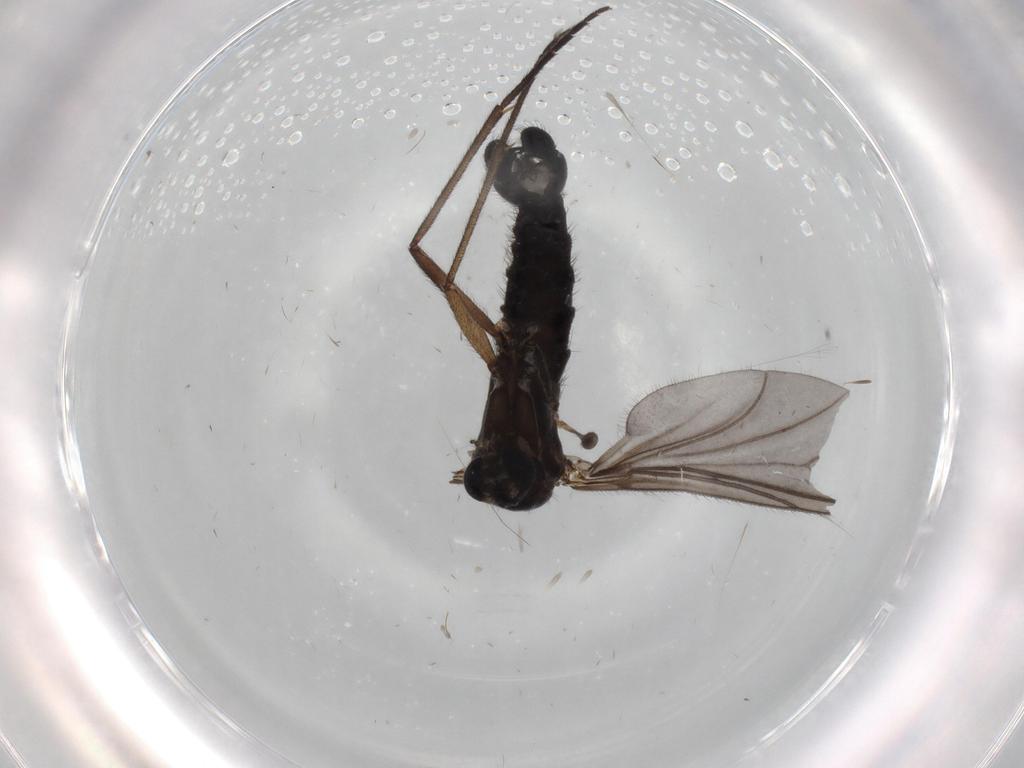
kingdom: Animalia
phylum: Arthropoda
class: Insecta
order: Diptera
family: Sciaridae
